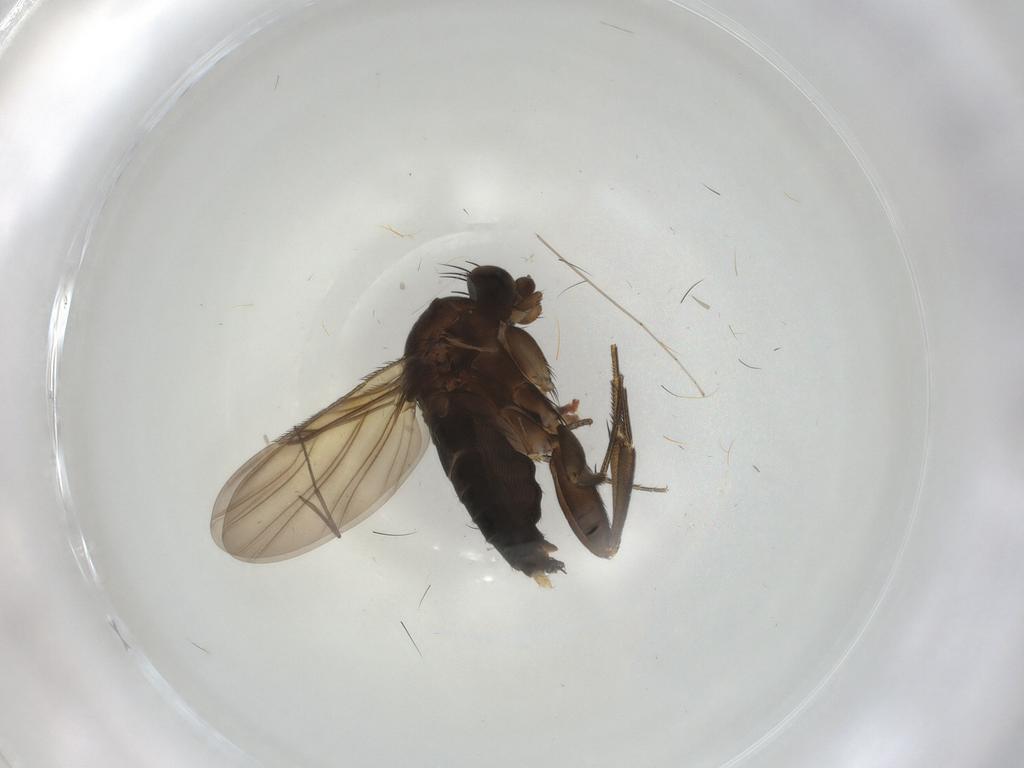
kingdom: Animalia
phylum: Arthropoda
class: Insecta
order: Diptera
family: Phoridae
